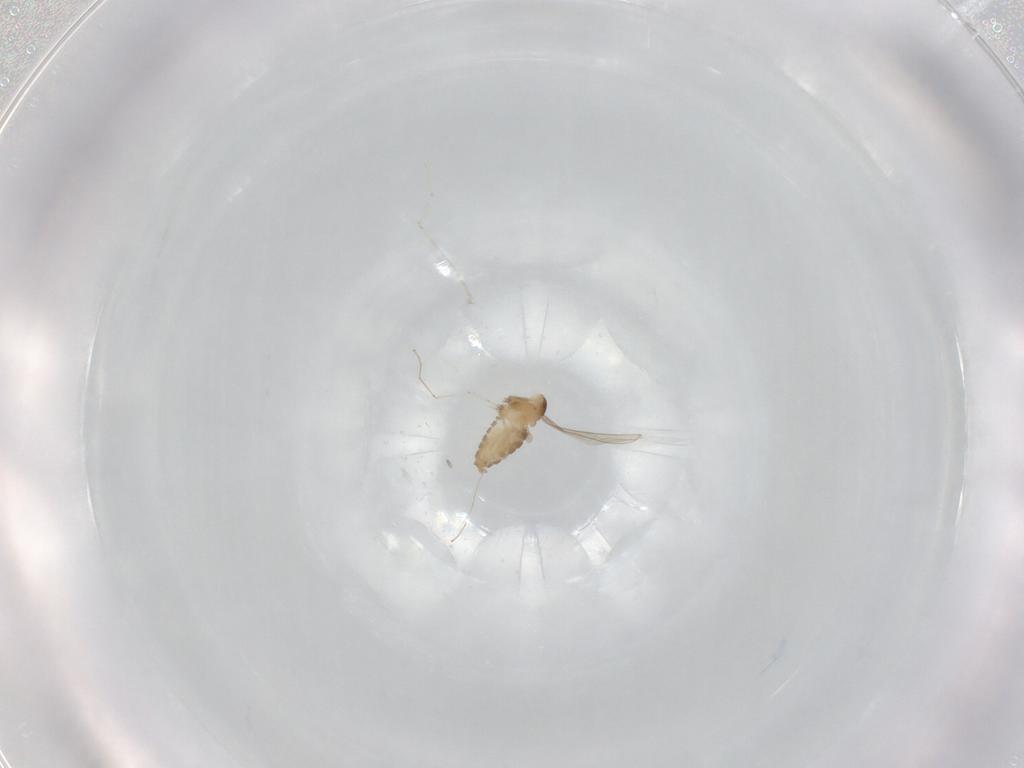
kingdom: Animalia
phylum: Arthropoda
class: Insecta
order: Diptera
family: Cecidomyiidae
